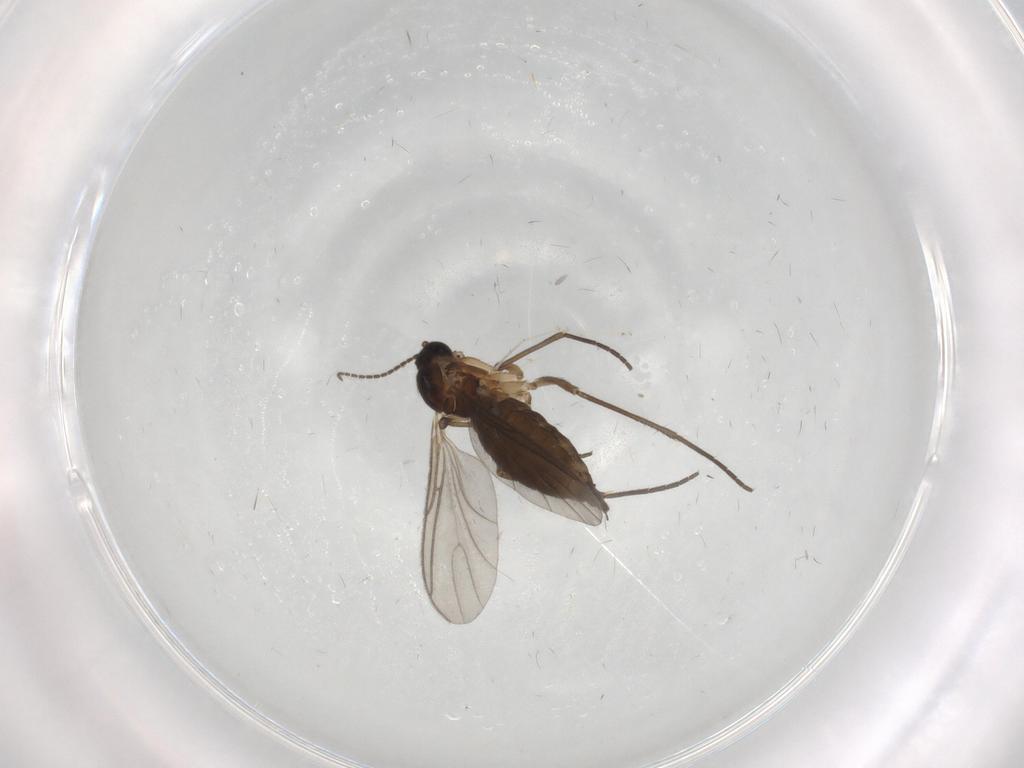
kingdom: Animalia
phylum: Arthropoda
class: Insecta
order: Diptera
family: Sciaridae
